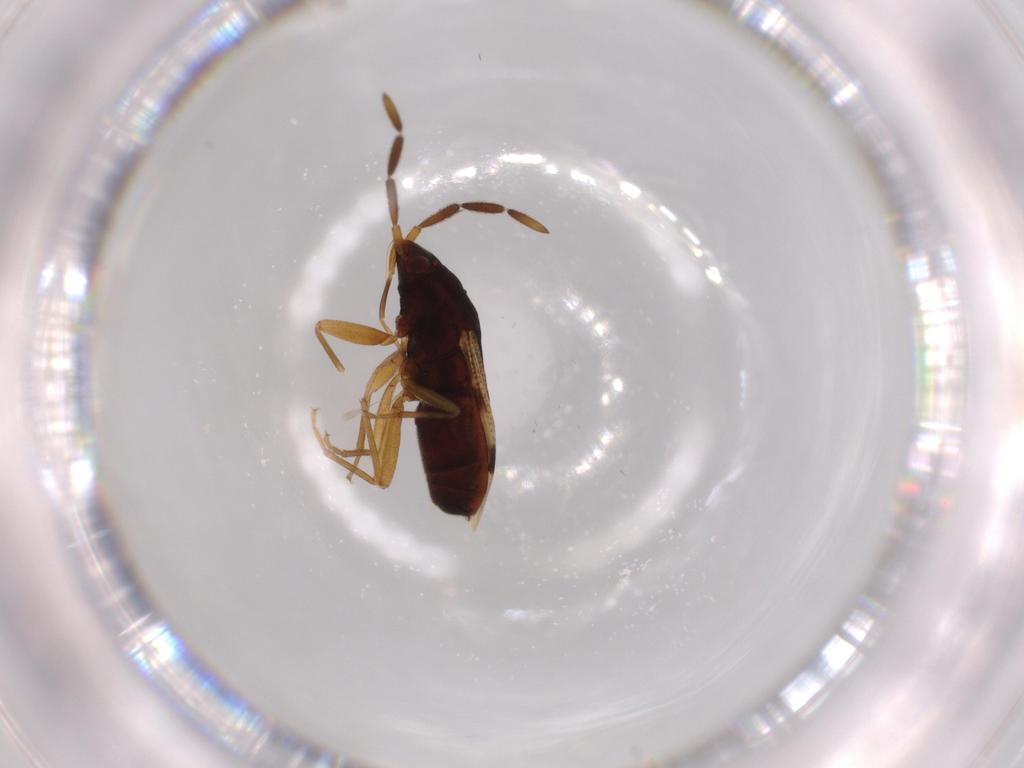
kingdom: Animalia
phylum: Arthropoda
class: Insecta
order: Hemiptera
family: Rhyparochromidae
